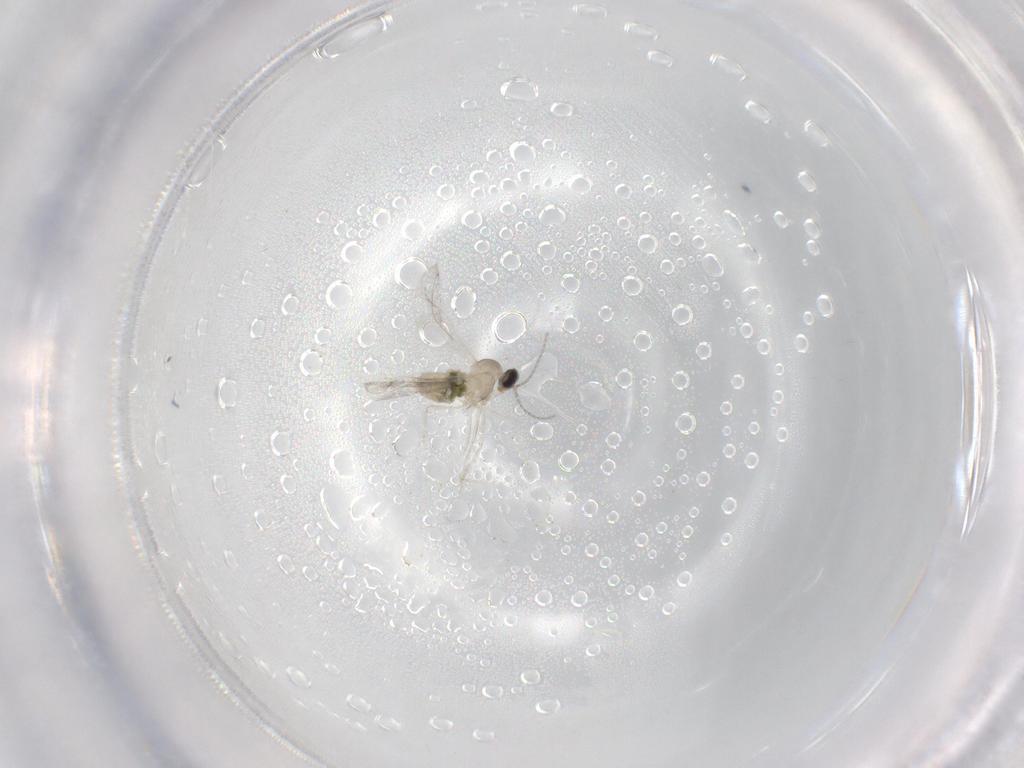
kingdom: Animalia
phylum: Arthropoda
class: Insecta
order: Diptera
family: Cecidomyiidae
